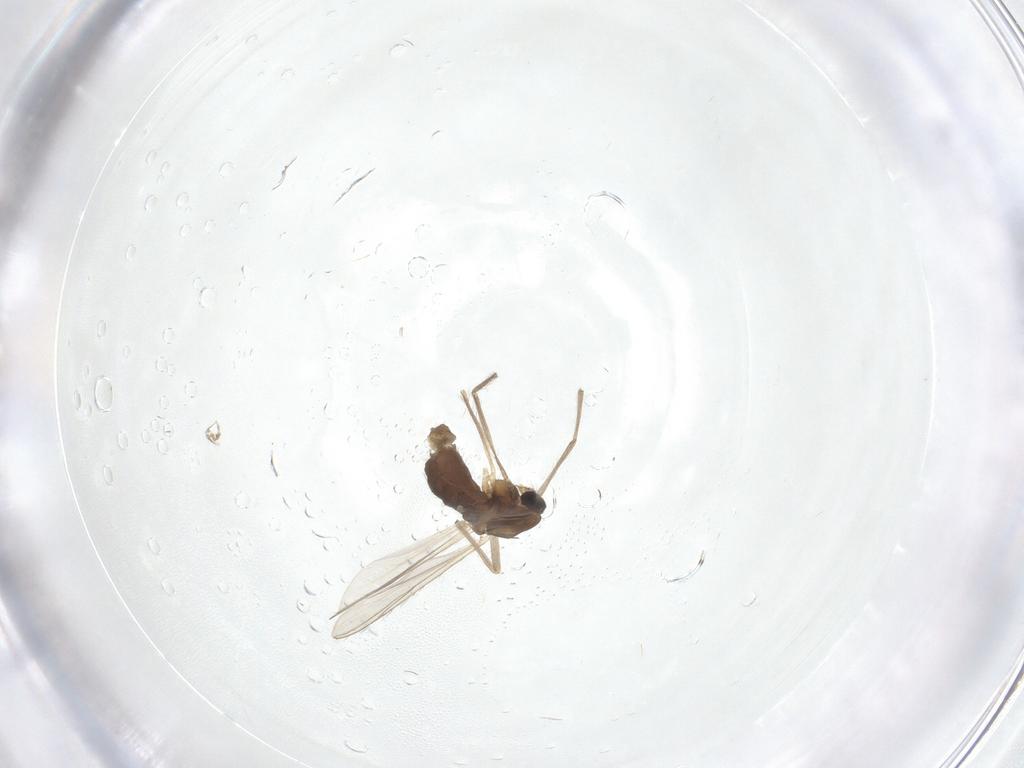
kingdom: Animalia
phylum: Arthropoda
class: Insecta
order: Diptera
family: Chironomidae
